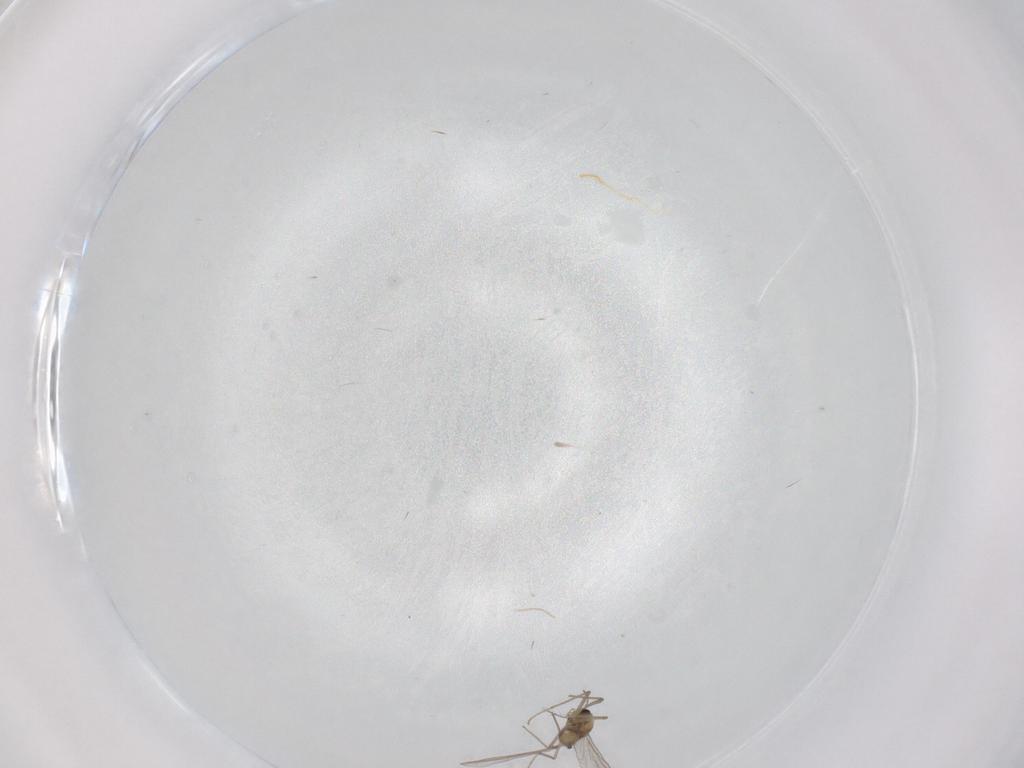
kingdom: Animalia
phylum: Arthropoda
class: Insecta
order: Diptera
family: Chironomidae
